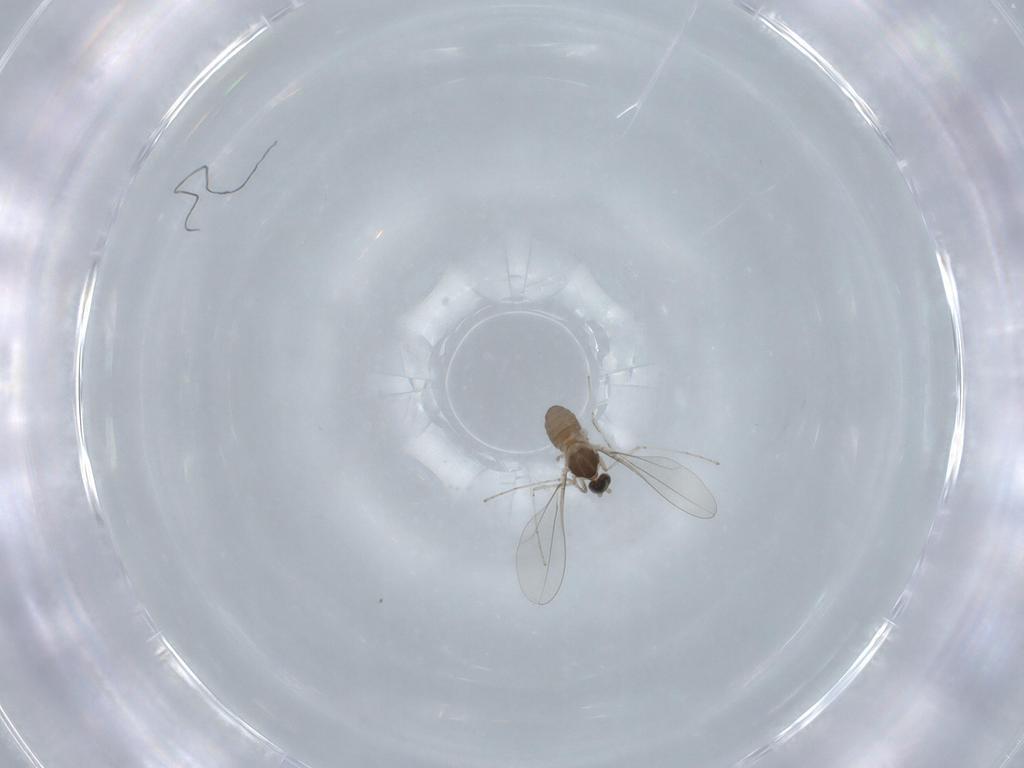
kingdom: Animalia
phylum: Arthropoda
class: Insecta
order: Diptera
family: Cecidomyiidae
